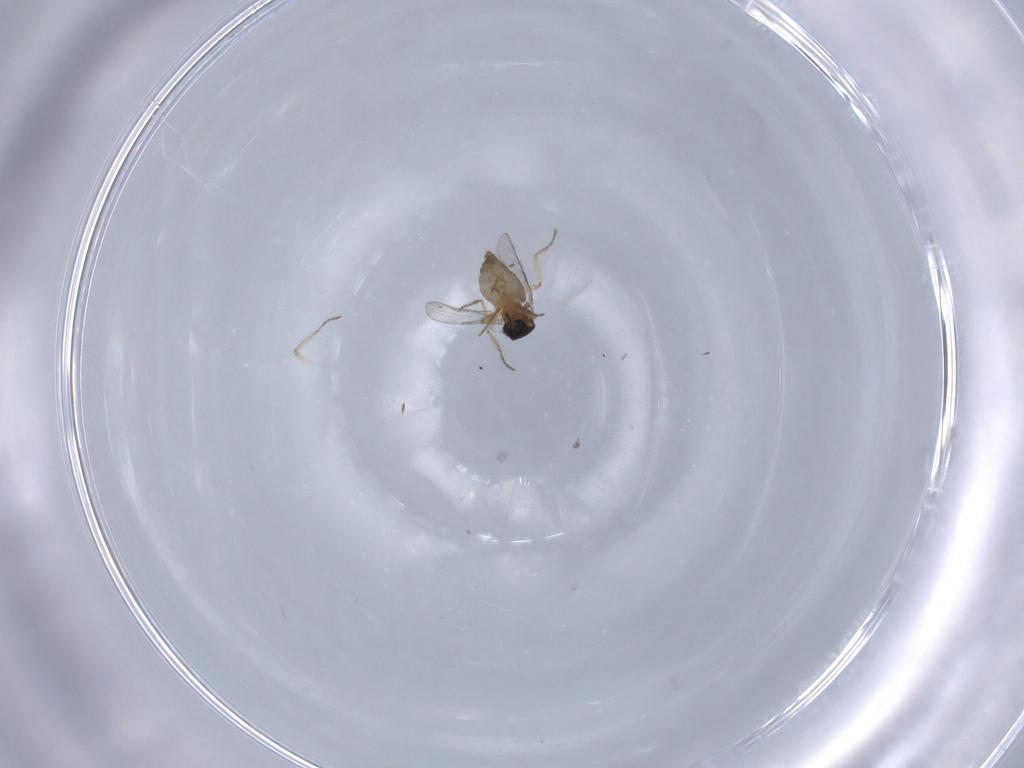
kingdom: Animalia
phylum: Arthropoda
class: Insecta
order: Diptera
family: Ceratopogonidae
